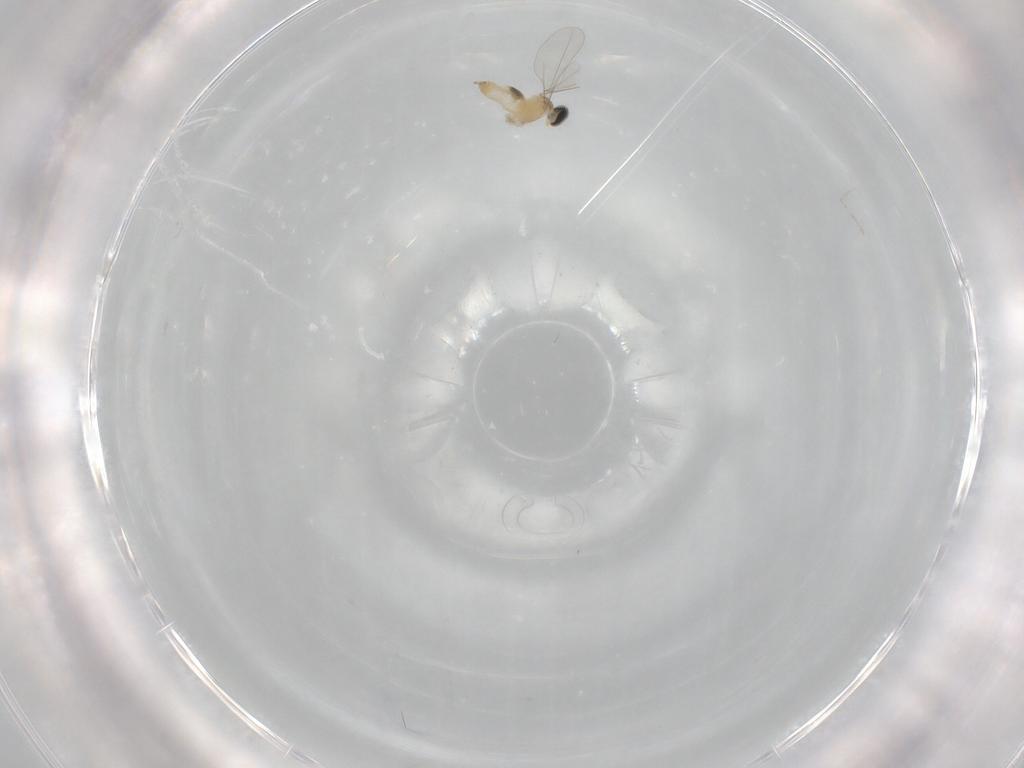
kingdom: Animalia
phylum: Arthropoda
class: Insecta
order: Diptera
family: Cecidomyiidae
